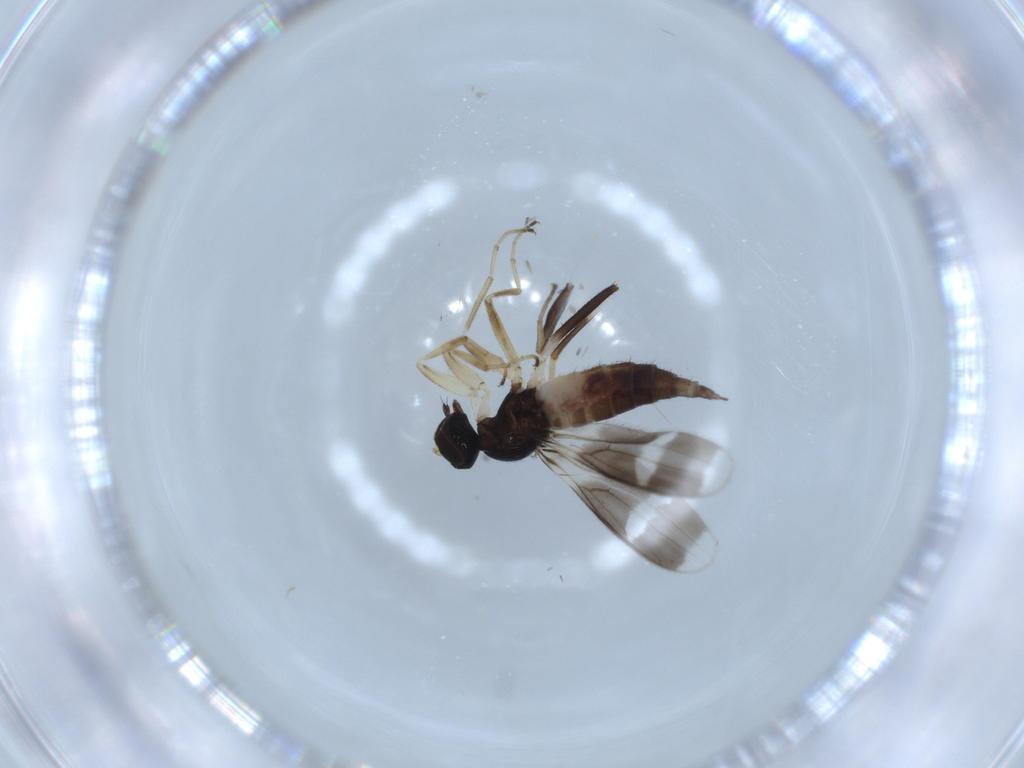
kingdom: Animalia
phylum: Arthropoda
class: Insecta
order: Diptera
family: Hybotidae
